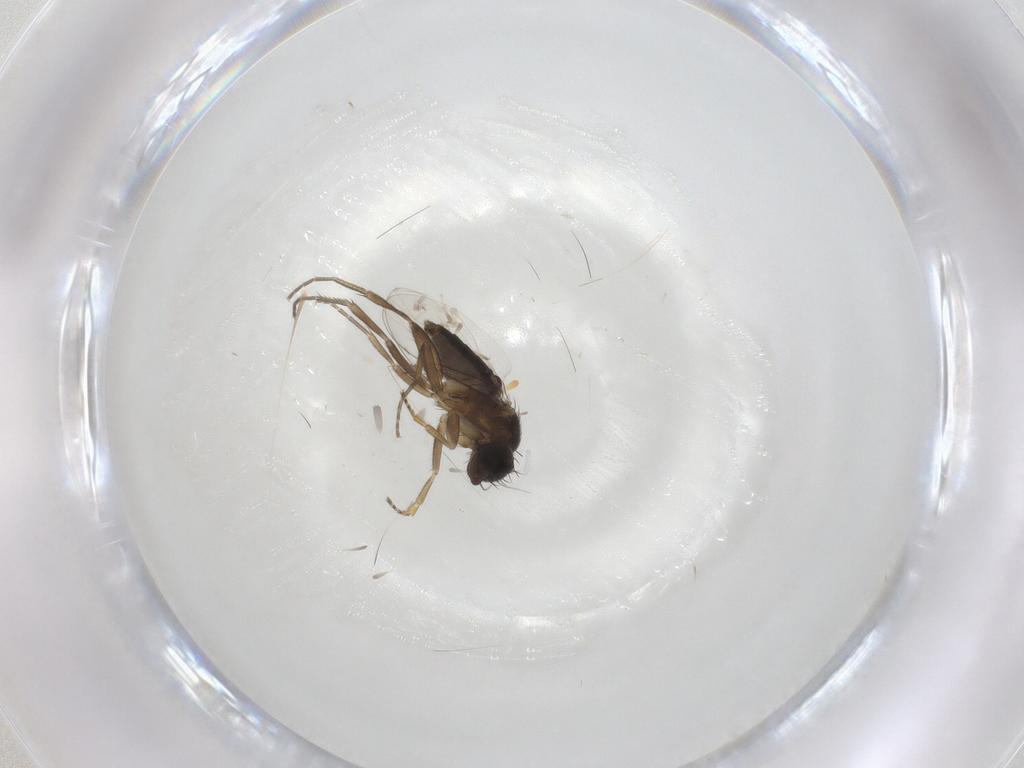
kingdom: Animalia
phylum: Arthropoda
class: Insecta
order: Diptera
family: Phoridae
